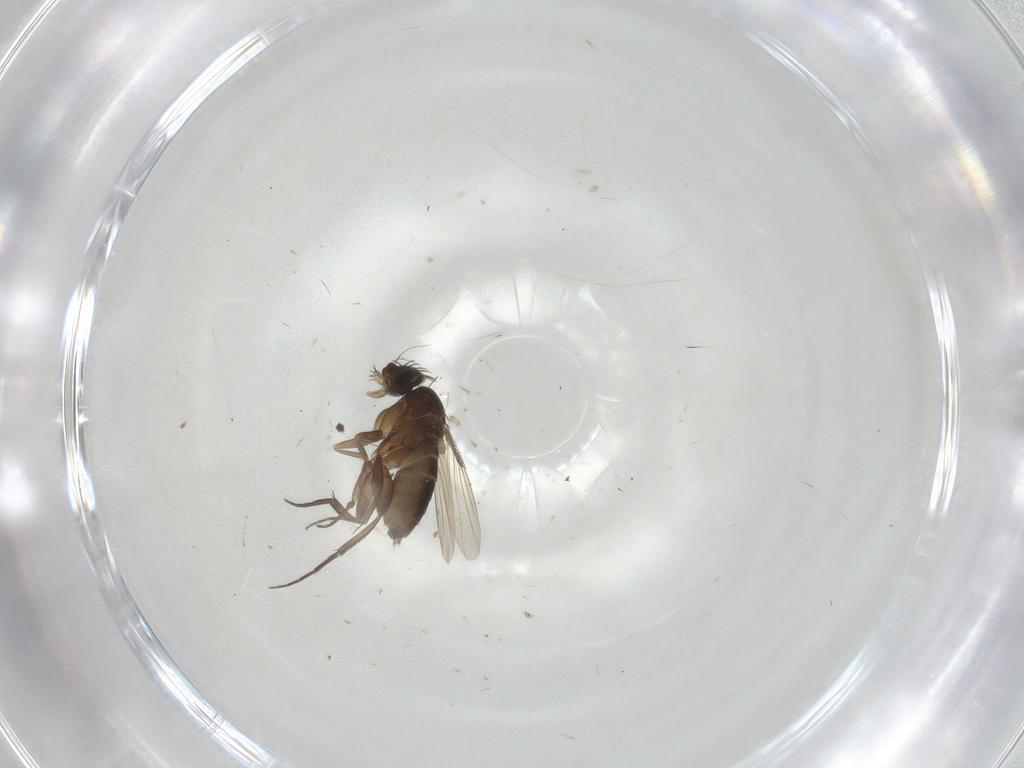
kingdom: Animalia
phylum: Arthropoda
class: Insecta
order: Diptera
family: Phoridae
